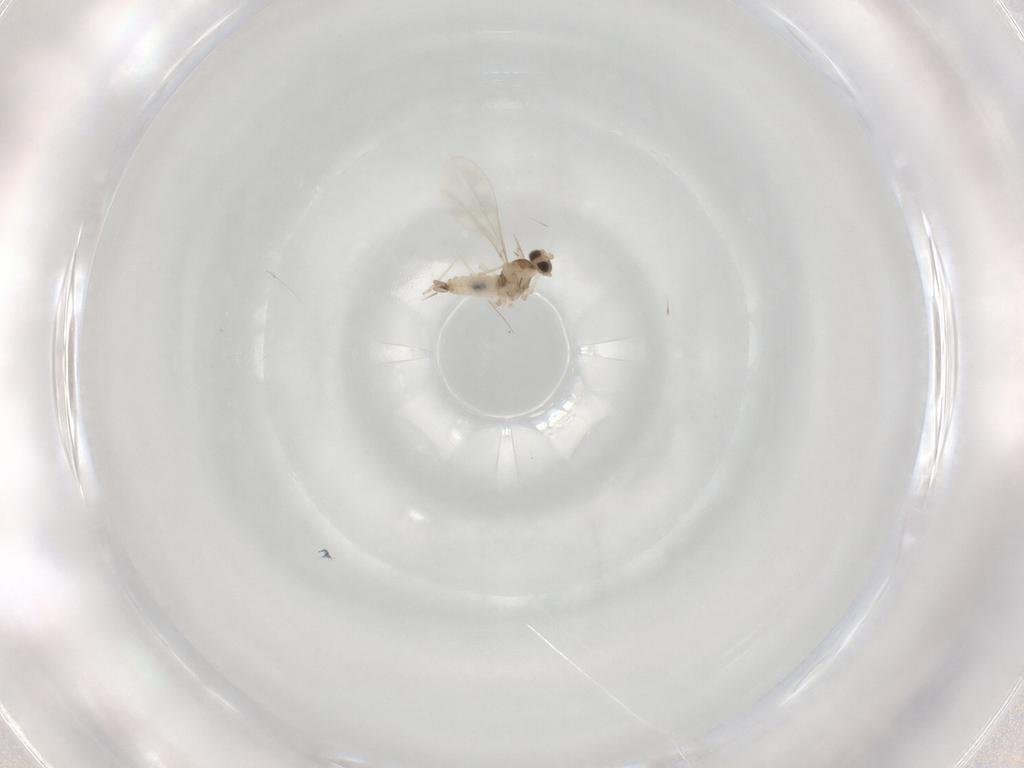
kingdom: Animalia
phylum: Arthropoda
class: Insecta
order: Diptera
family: Cecidomyiidae
